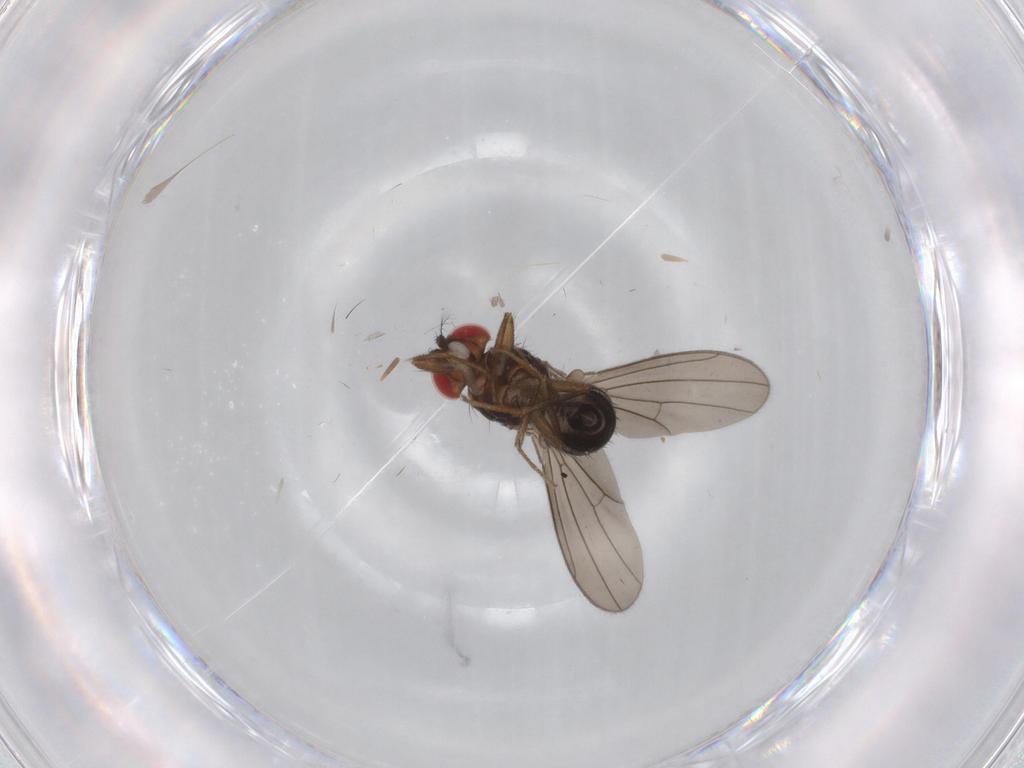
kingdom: Animalia
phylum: Arthropoda
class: Insecta
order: Diptera
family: Drosophilidae
